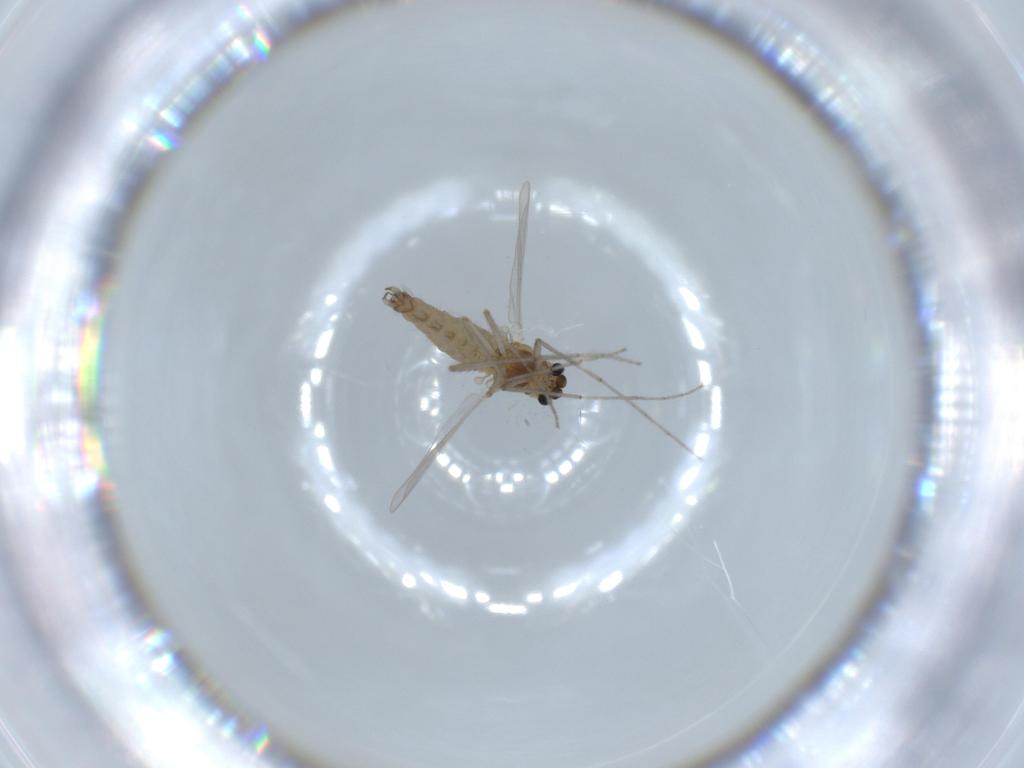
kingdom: Animalia
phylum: Arthropoda
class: Insecta
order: Diptera
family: Chironomidae
